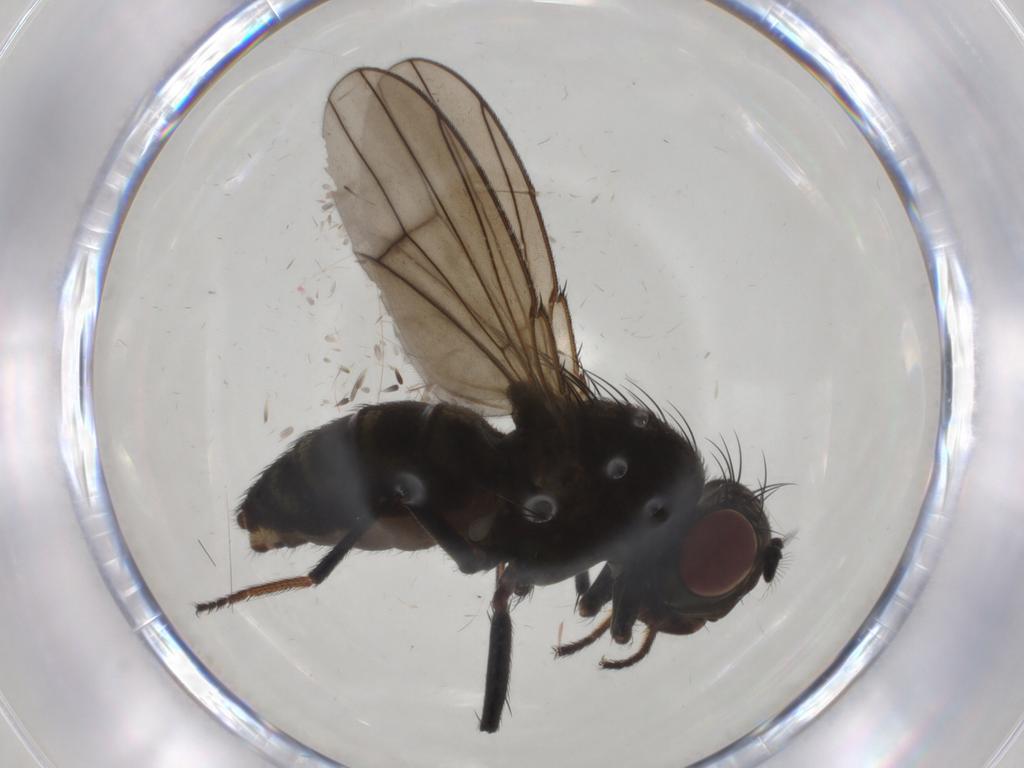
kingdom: Animalia
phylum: Arthropoda
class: Insecta
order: Diptera
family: Ephydridae
